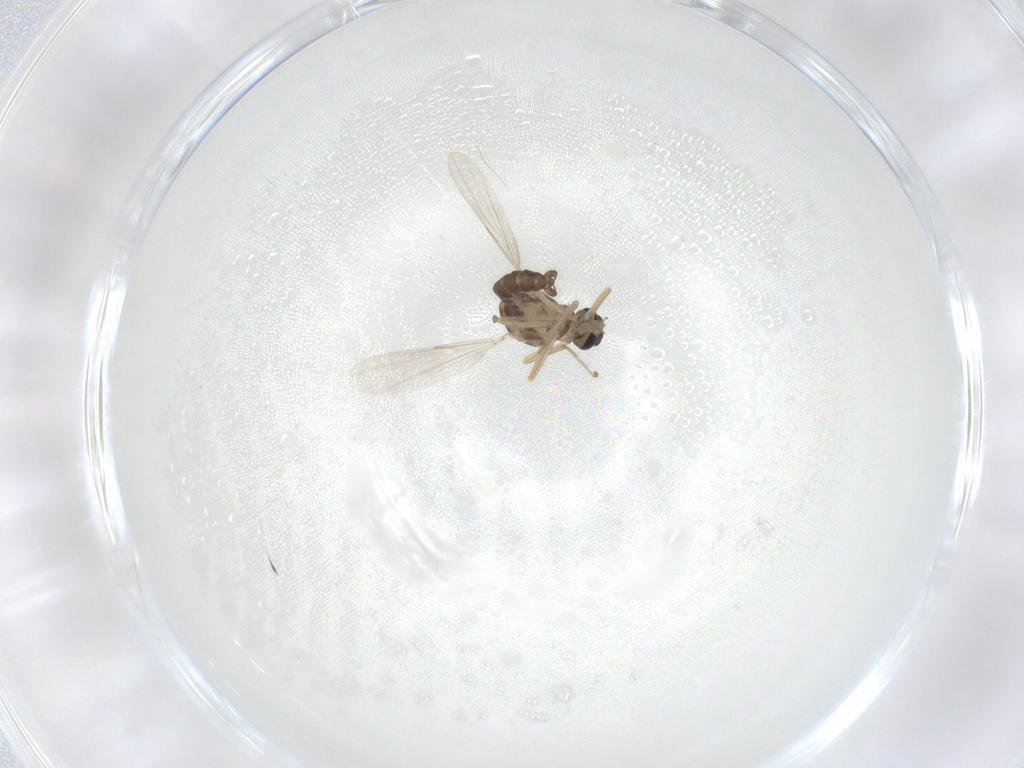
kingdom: Animalia
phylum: Arthropoda
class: Insecta
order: Diptera
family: Ceratopogonidae
